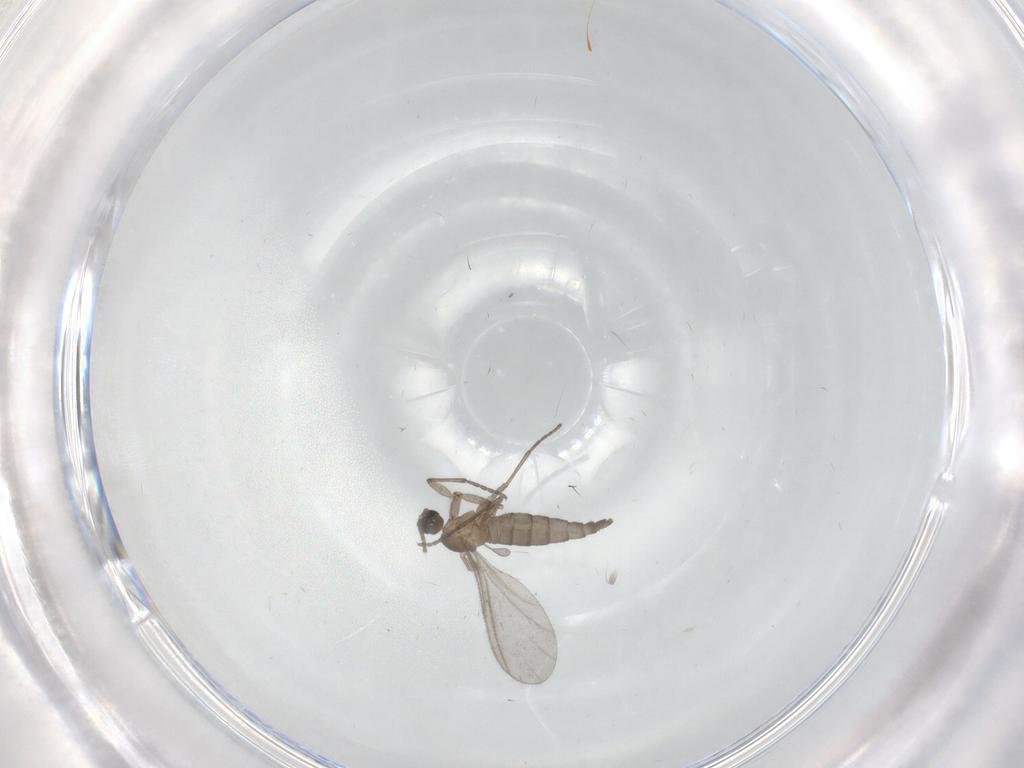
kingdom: Animalia
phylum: Arthropoda
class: Insecta
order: Diptera
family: Sciaridae
